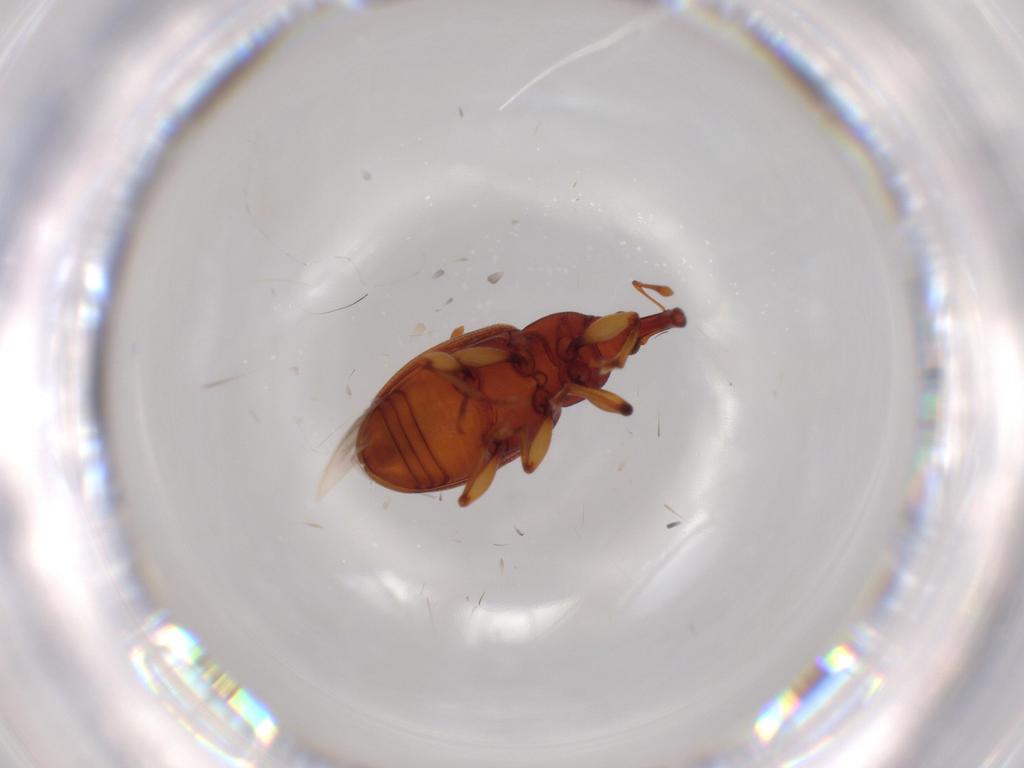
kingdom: Animalia
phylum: Arthropoda
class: Insecta
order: Coleoptera
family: Curculionidae
